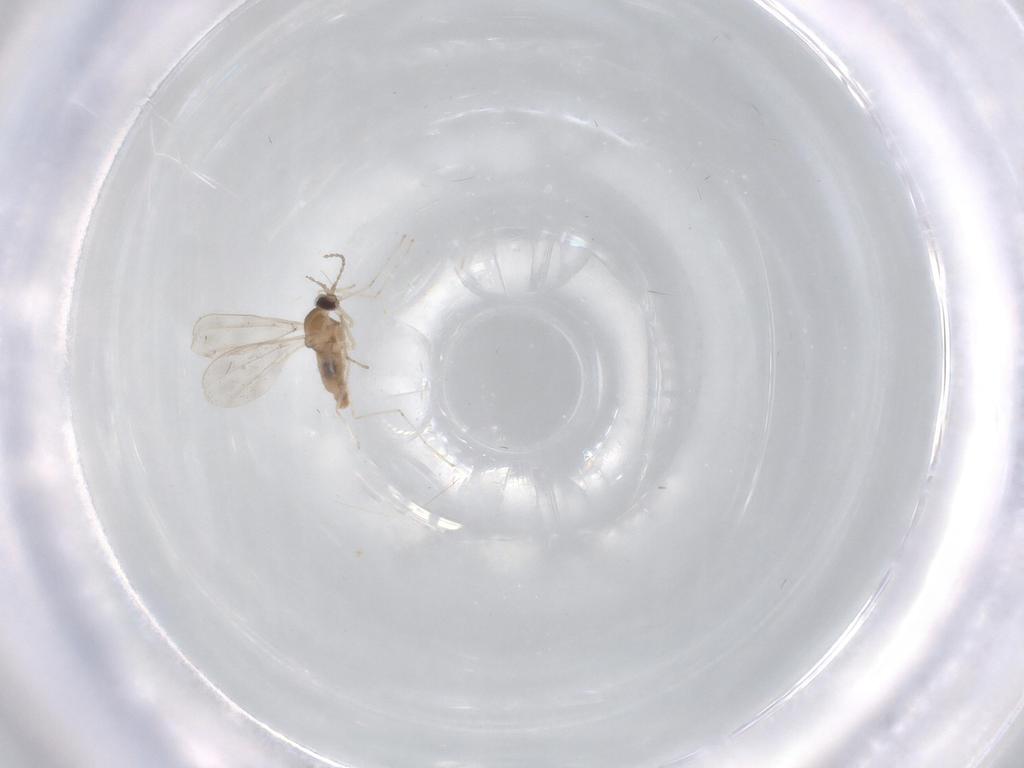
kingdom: Animalia
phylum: Arthropoda
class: Insecta
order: Diptera
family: Cecidomyiidae
